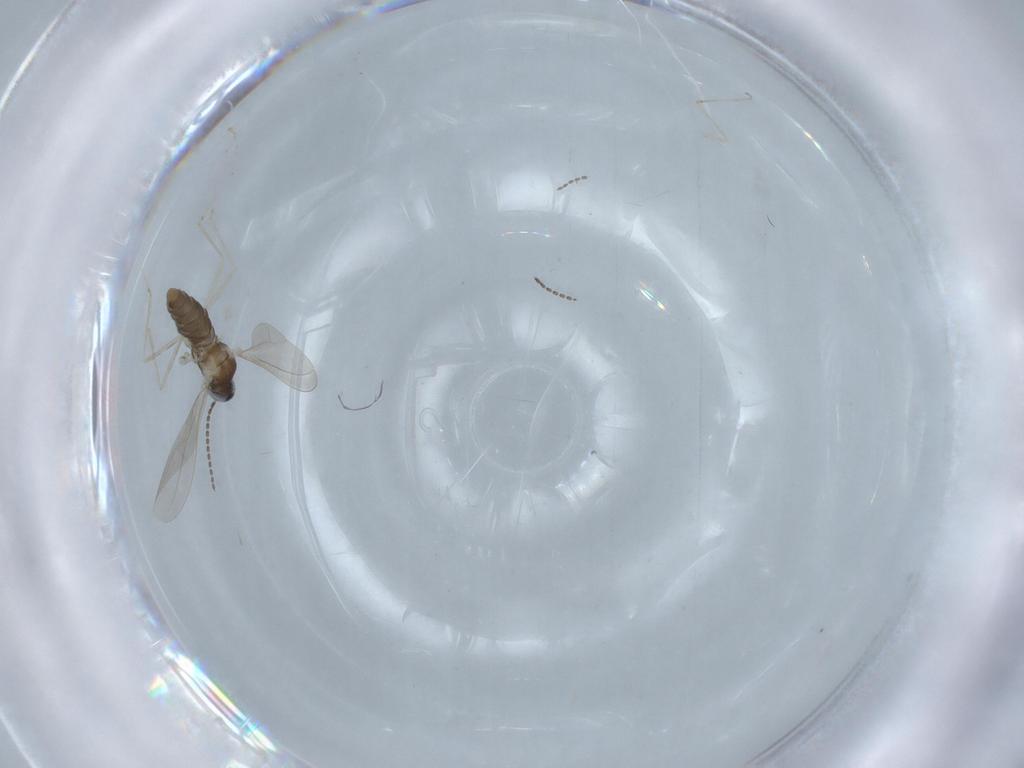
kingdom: Animalia
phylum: Arthropoda
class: Insecta
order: Diptera
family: Cecidomyiidae
